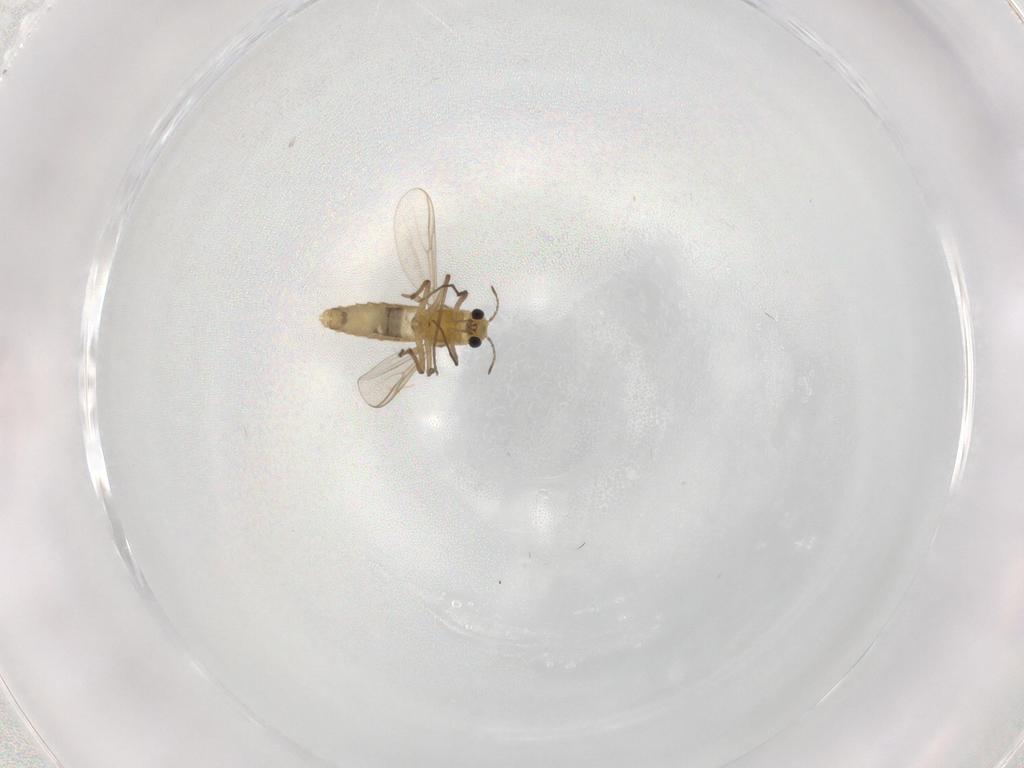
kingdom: Animalia
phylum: Arthropoda
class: Insecta
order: Diptera
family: Chironomidae
